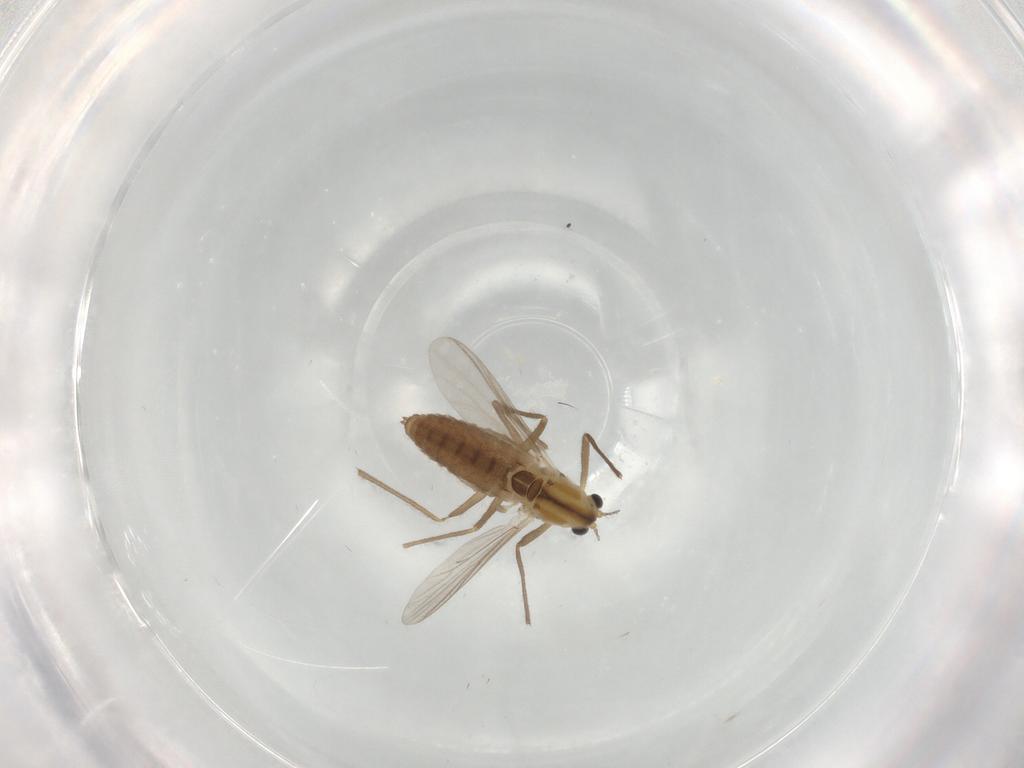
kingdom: Animalia
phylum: Arthropoda
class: Insecta
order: Diptera
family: Chironomidae
